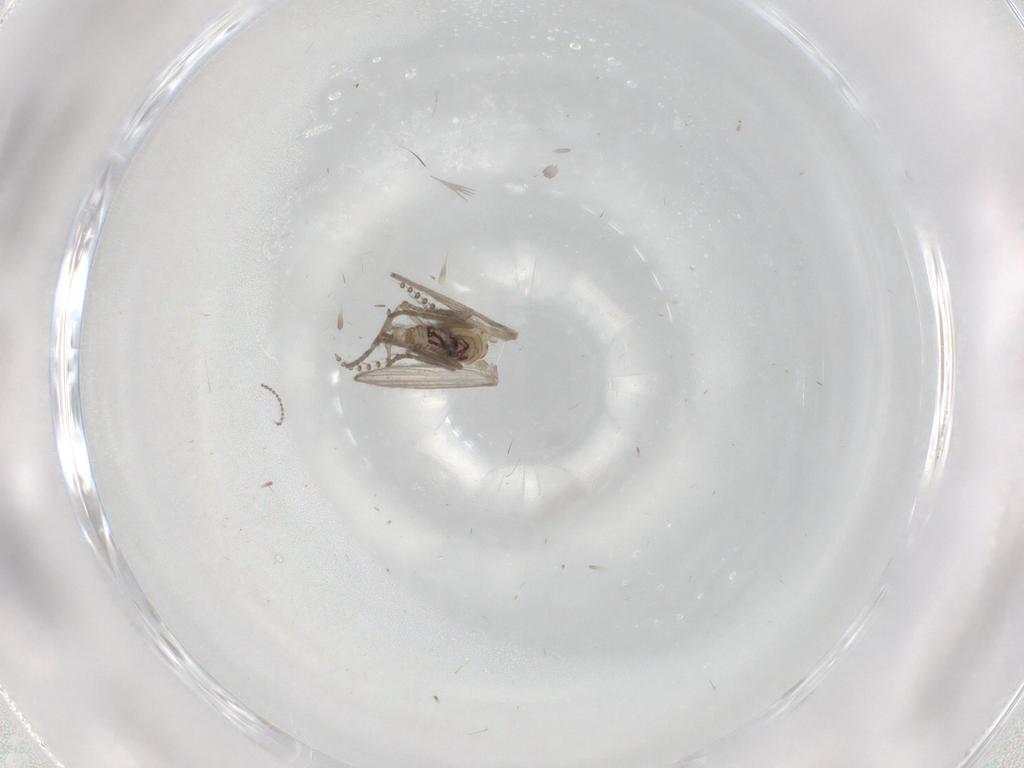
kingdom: Animalia
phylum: Arthropoda
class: Insecta
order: Diptera
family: Cecidomyiidae
